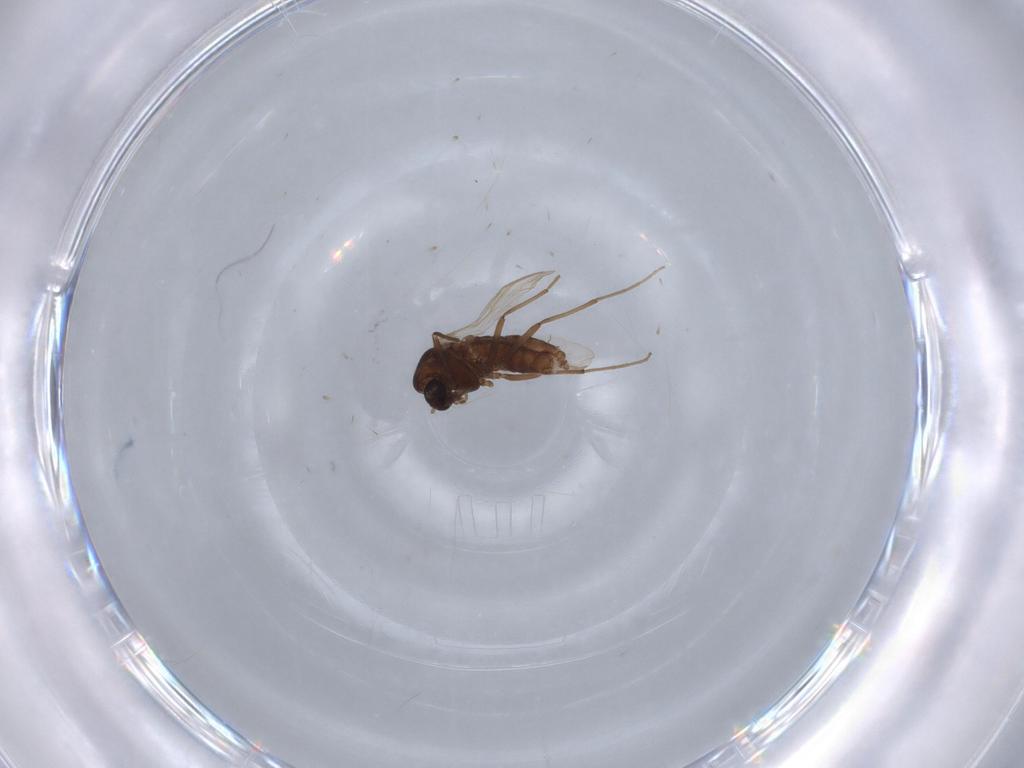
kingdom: Animalia
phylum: Arthropoda
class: Insecta
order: Diptera
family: Chironomidae
